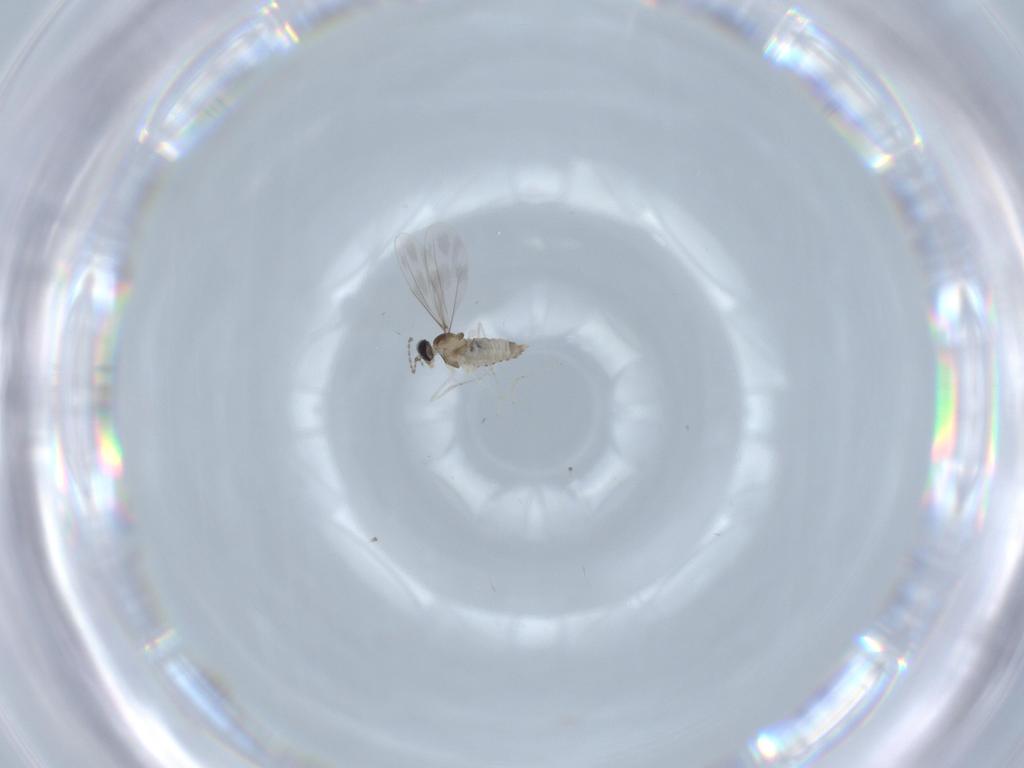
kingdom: Animalia
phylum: Arthropoda
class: Insecta
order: Diptera
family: Cecidomyiidae
